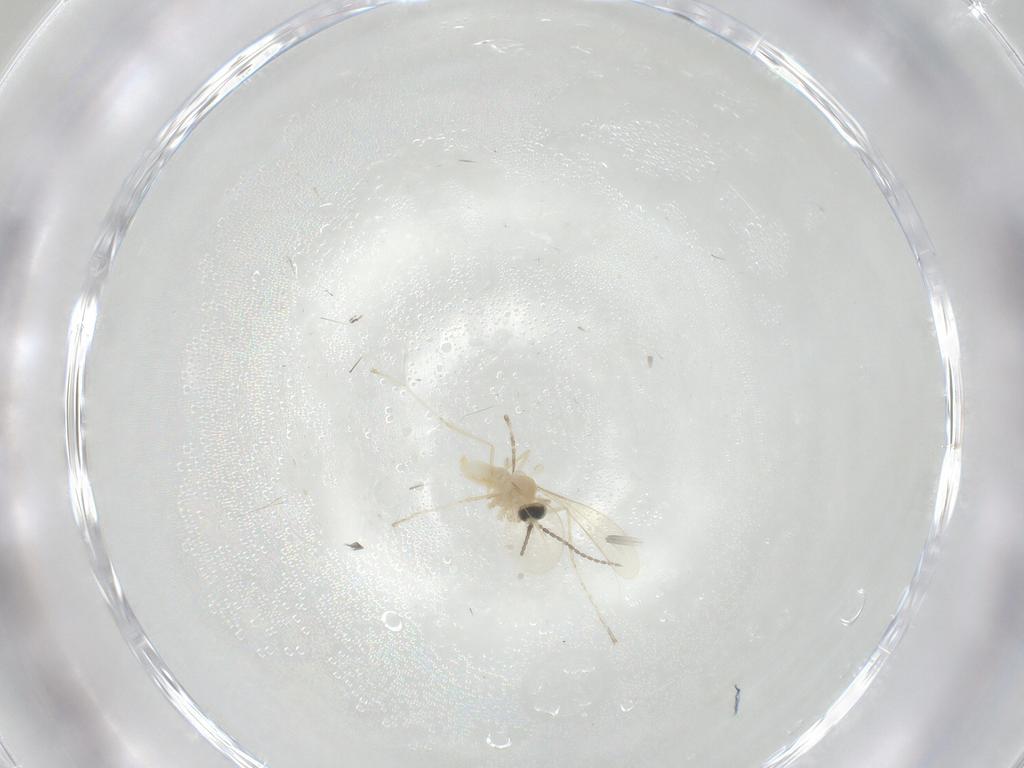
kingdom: Animalia
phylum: Arthropoda
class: Insecta
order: Diptera
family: Cecidomyiidae
